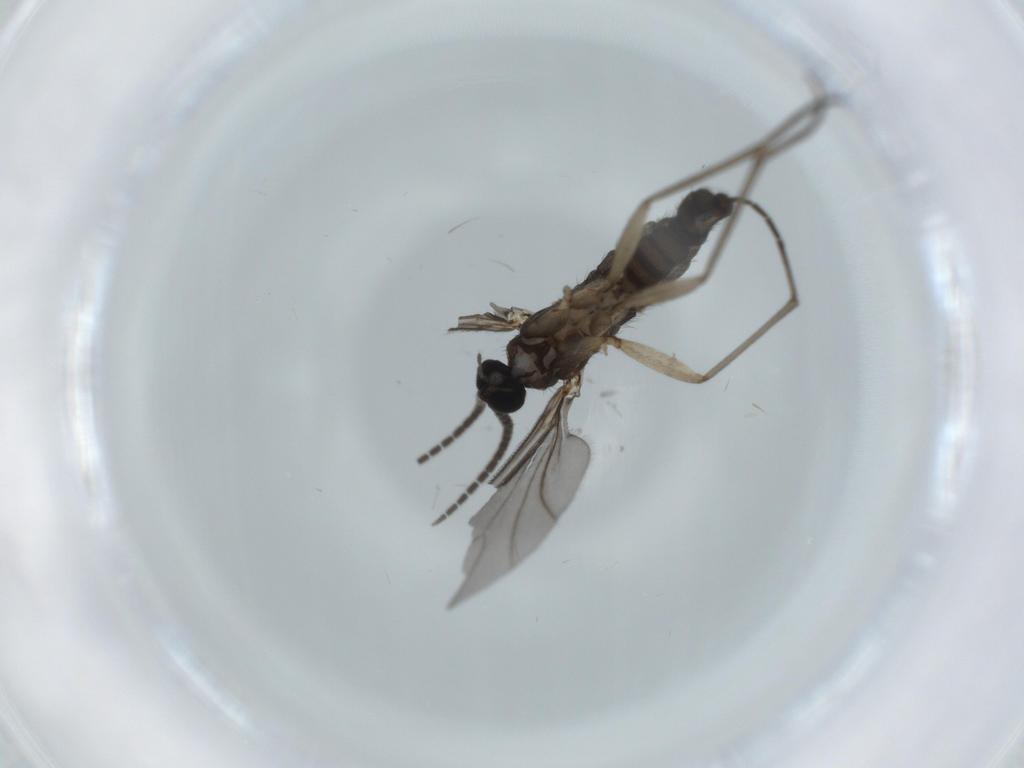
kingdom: Animalia
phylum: Arthropoda
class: Insecta
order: Diptera
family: Sciaridae
